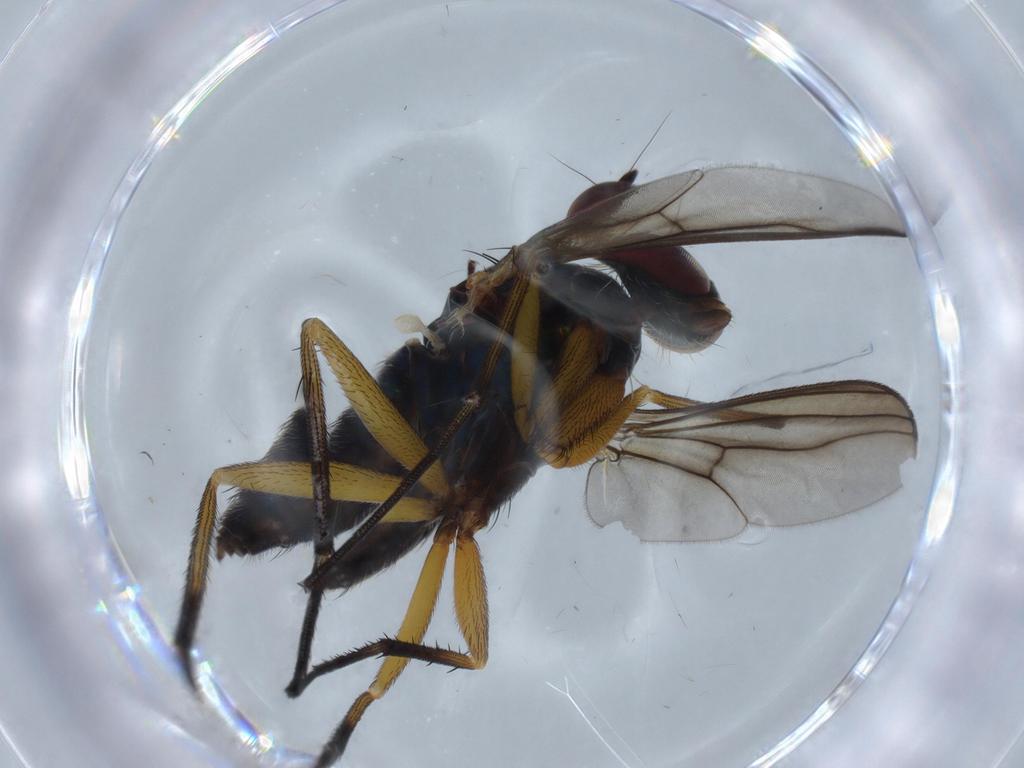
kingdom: Animalia
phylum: Arthropoda
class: Insecta
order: Diptera
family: Dolichopodidae
